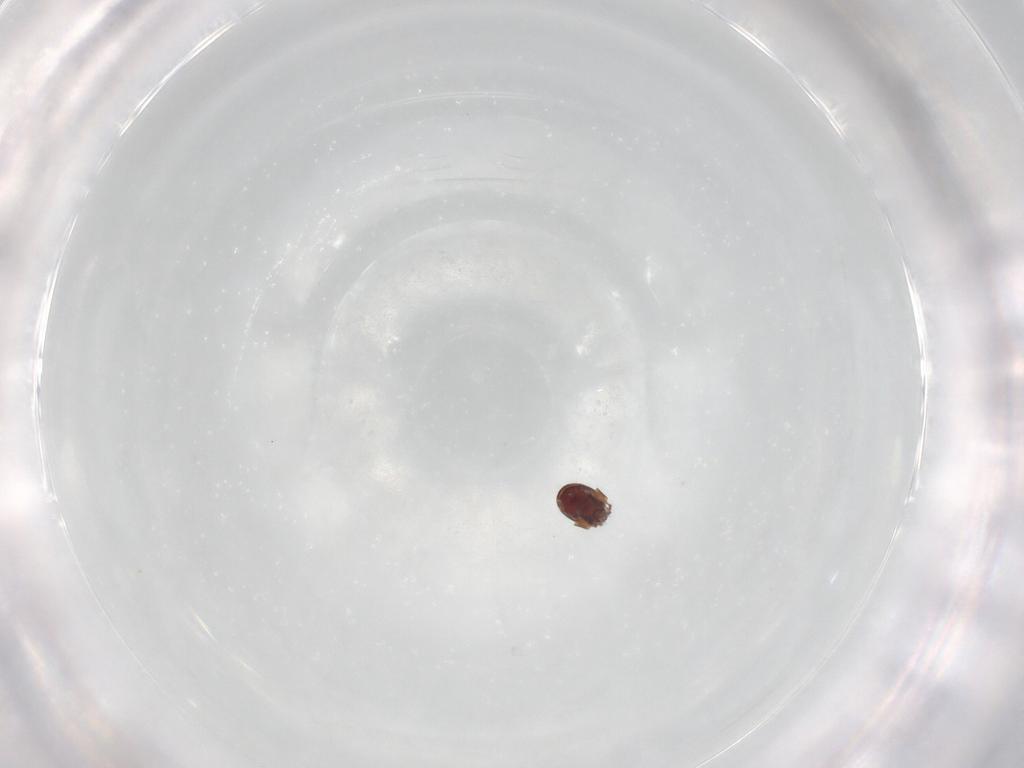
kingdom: Animalia
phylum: Arthropoda
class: Arachnida
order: Sarcoptiformes
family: Phenopelopidae
